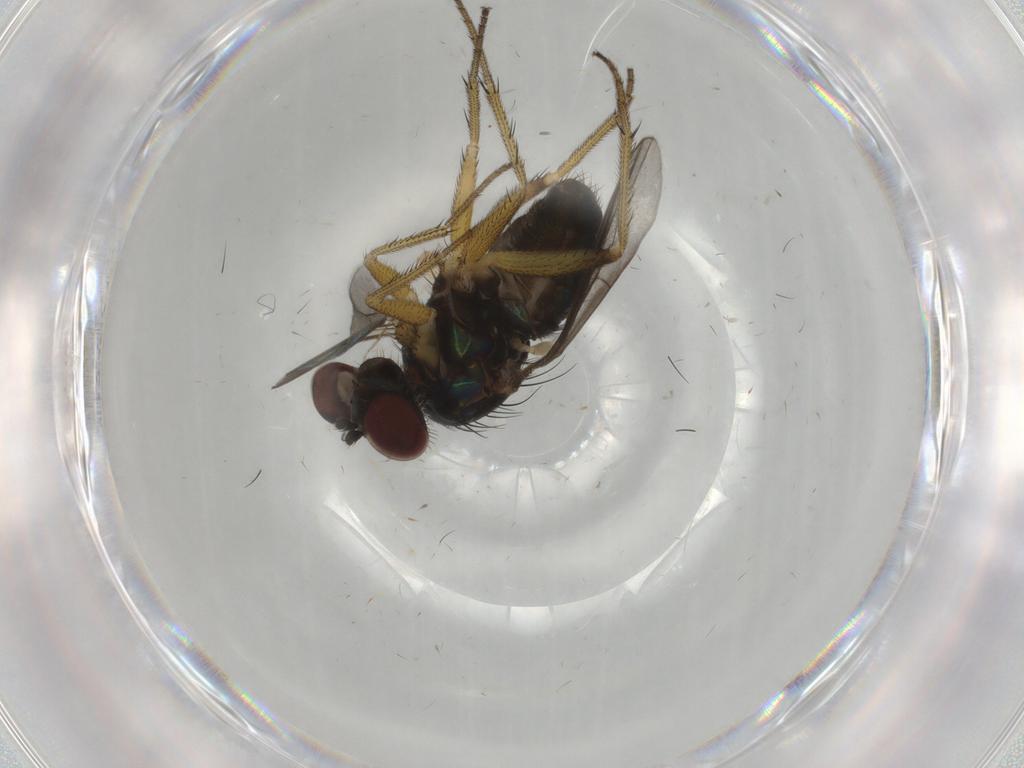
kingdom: Animalia
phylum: Arthropoda
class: Insecta
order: Diptera
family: Dolichopodidae
